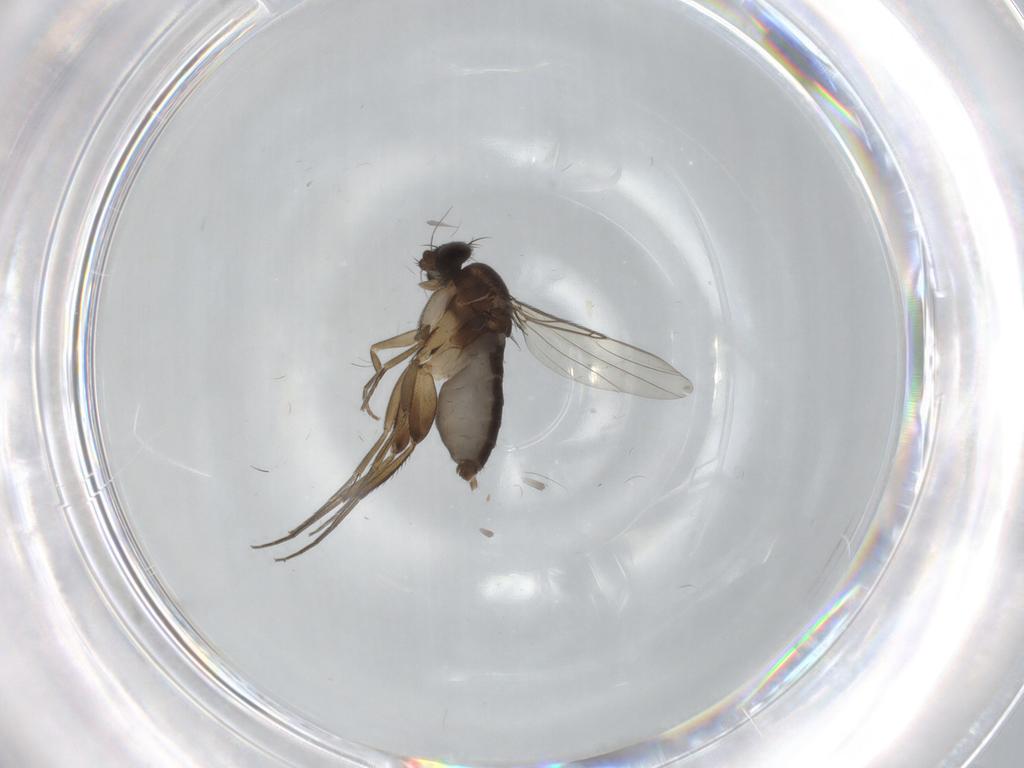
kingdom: Animalia
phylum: Arthropoda
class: Insecta
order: Diptera
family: Phoridae
